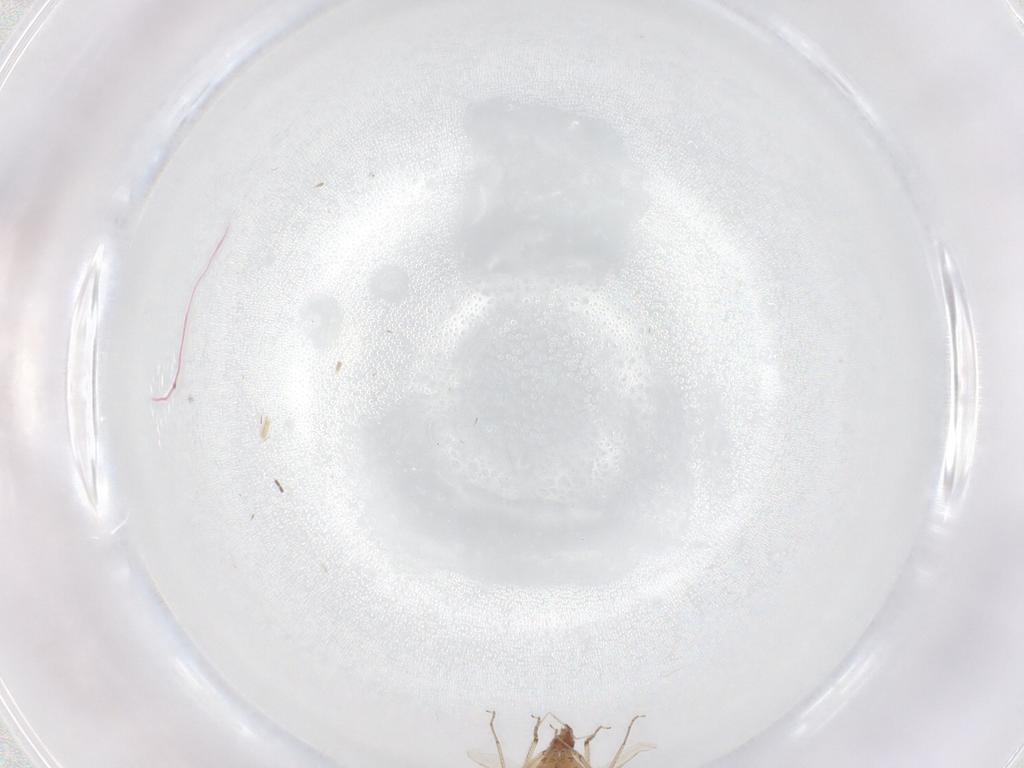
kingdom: Animalia
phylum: Arthropoda
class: Insecta
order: Diptera
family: Ceratopogonidae
